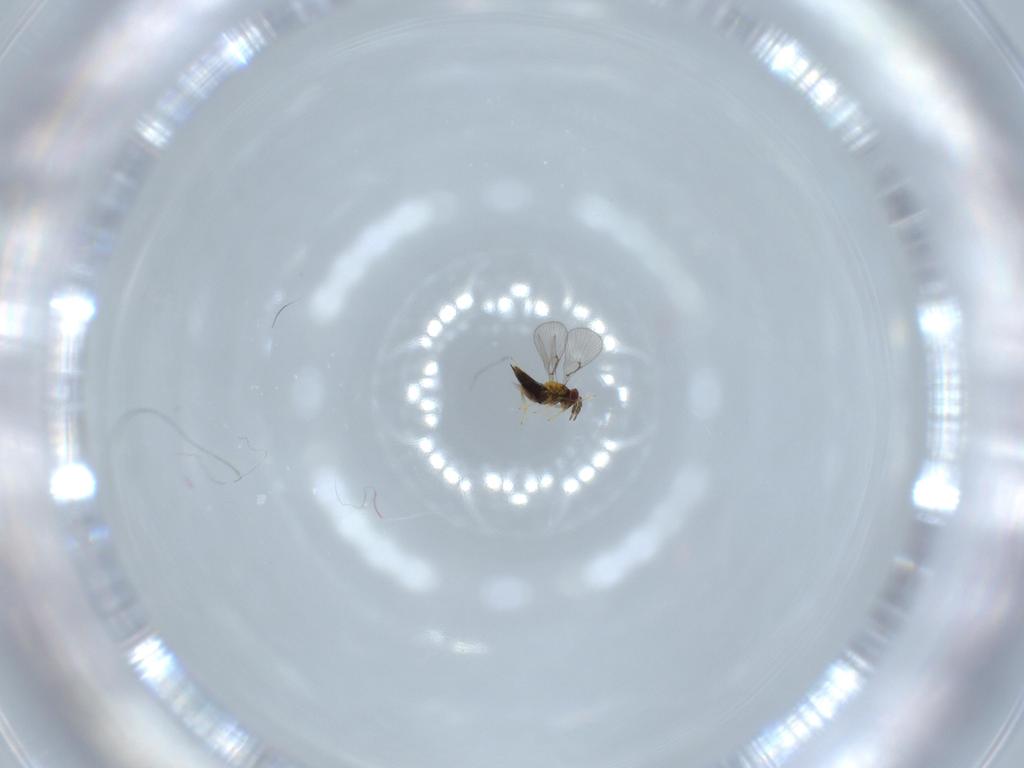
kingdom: Animalia
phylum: Arthropoda
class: Insecta
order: Hymenoptera
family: Trichogrammatidae
